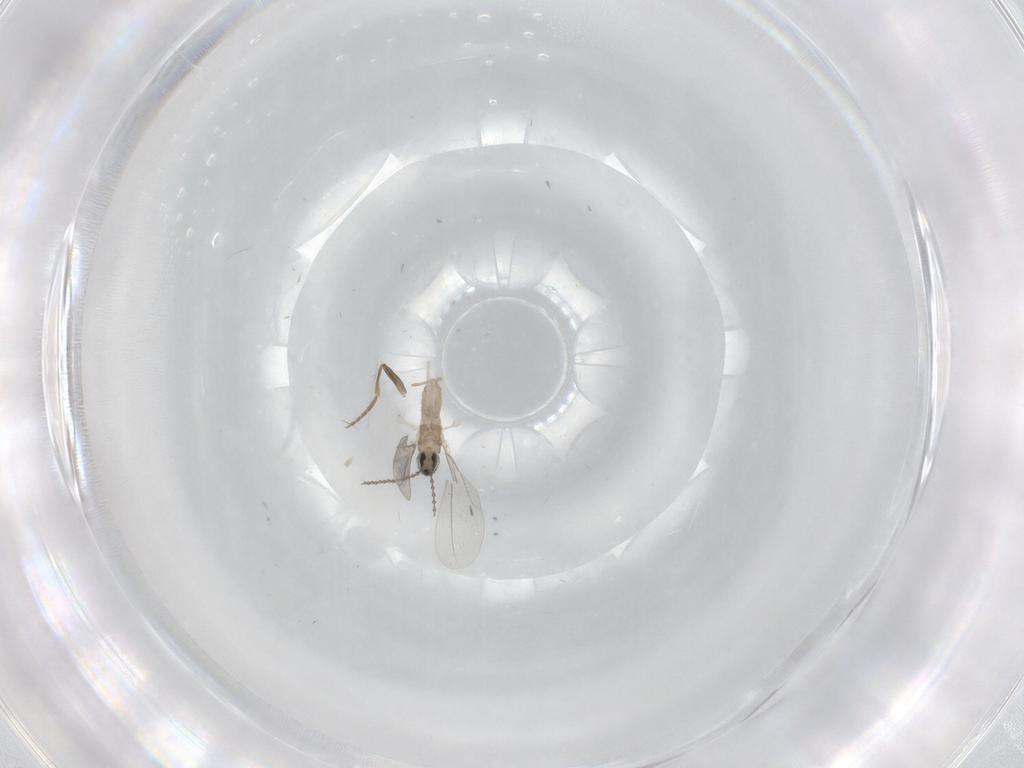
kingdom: Animalia
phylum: Arthropoda
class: Insecta
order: Diptera
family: Cecidomyiidae
